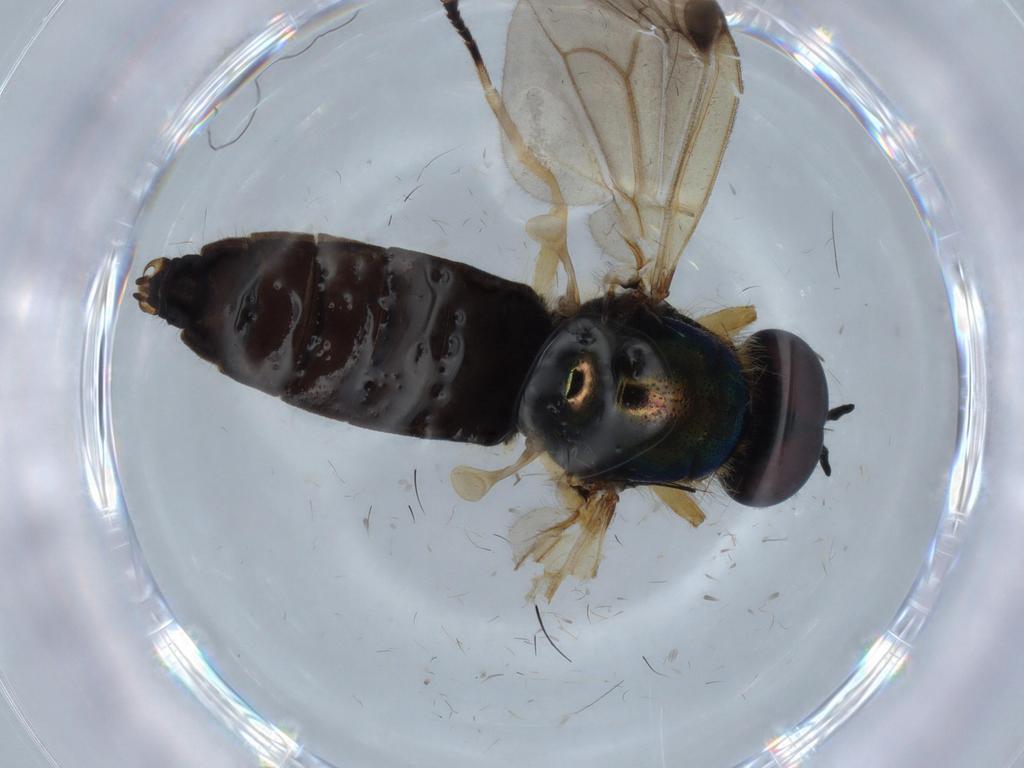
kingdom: Animalia
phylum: Arthropoda
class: Insecta
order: Diptera
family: Stratiomyidae
